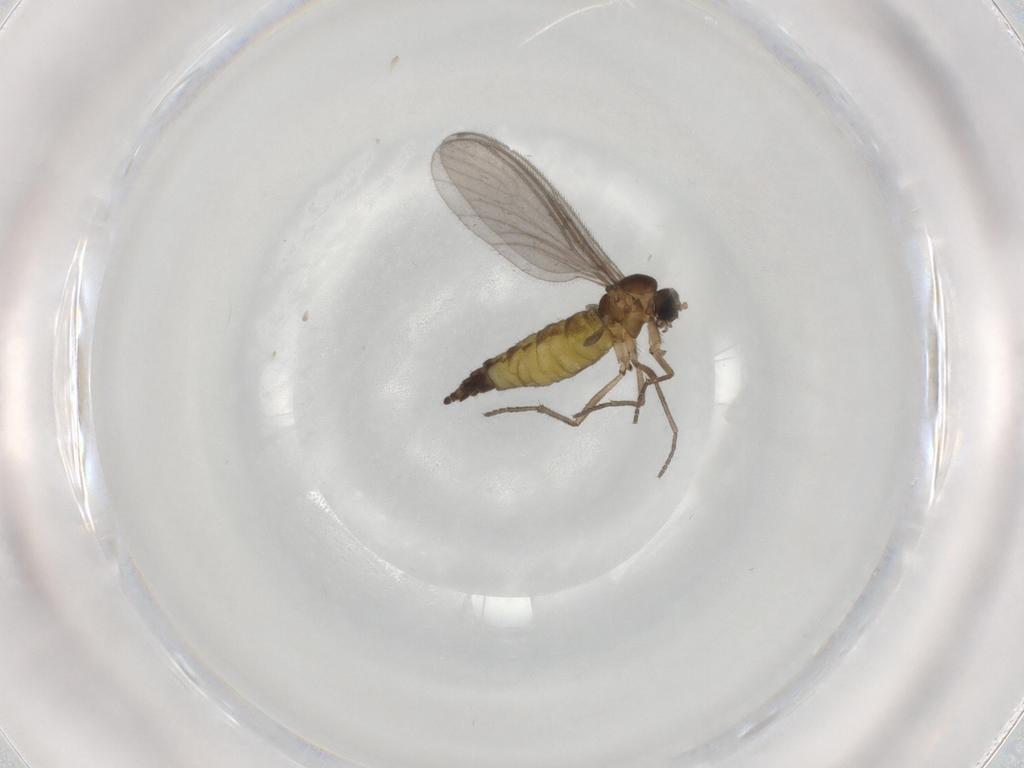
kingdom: Animalia
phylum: Arthropoda
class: Insecta
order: Diptera
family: Sciaridae
